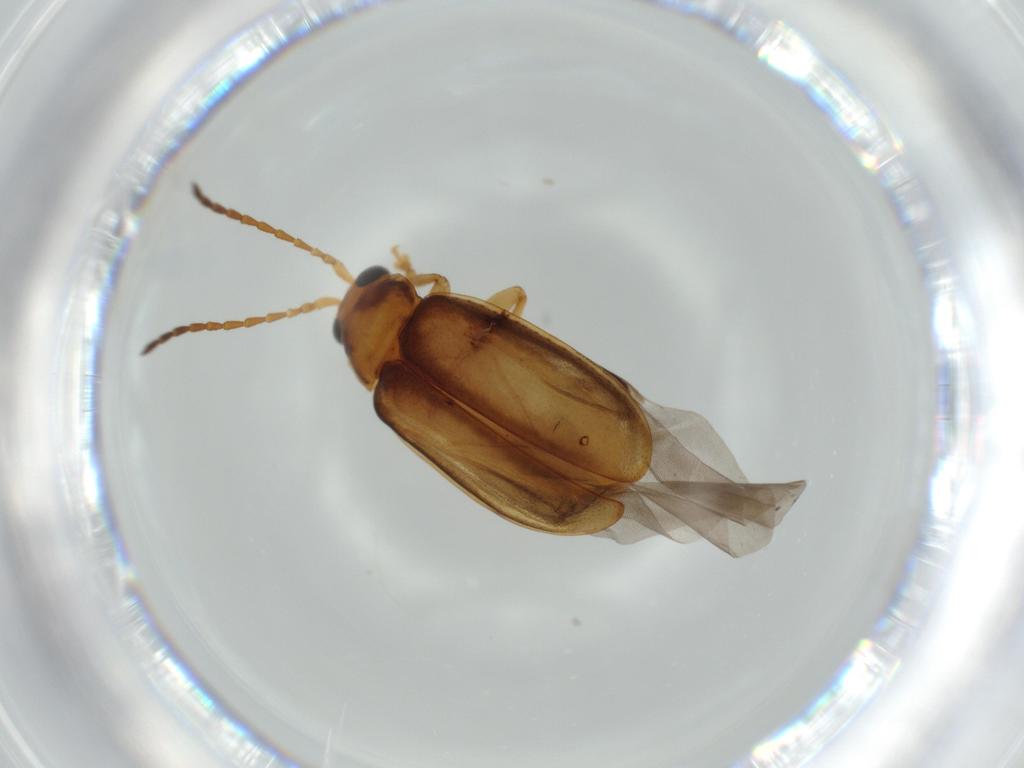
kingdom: Animalia
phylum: Arthropoda
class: Insecta
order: Coleoptera
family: Chrysomelidae
